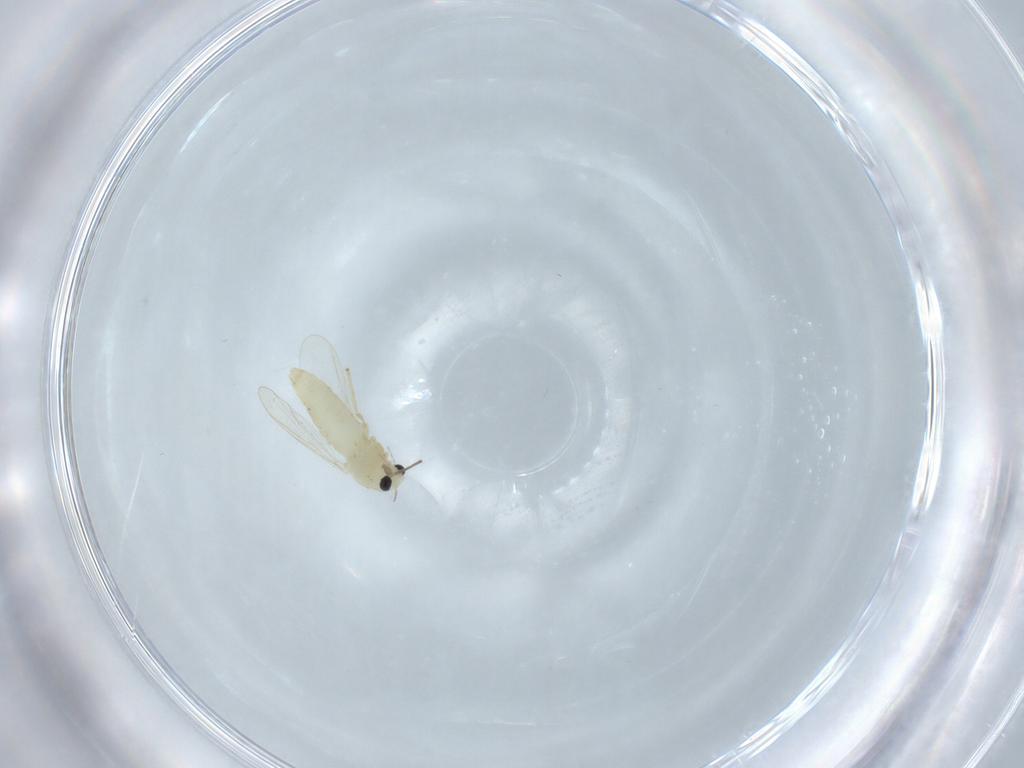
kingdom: Animalia
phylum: Arthropoda
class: Insecta
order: Diptera
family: Chironomidae
